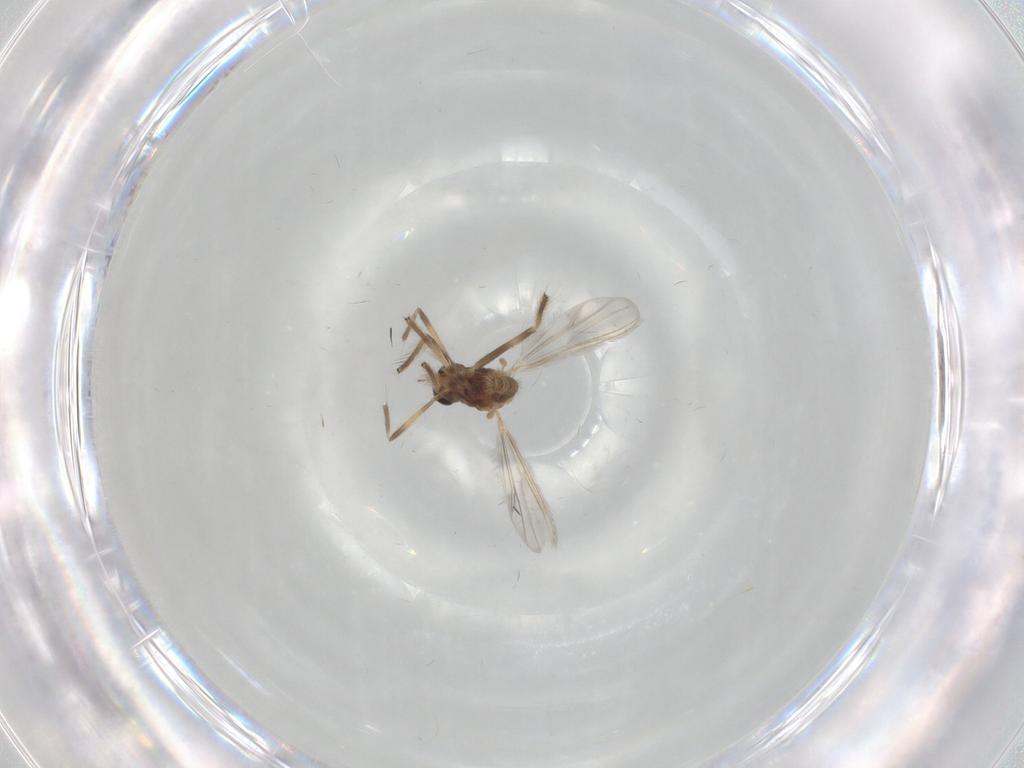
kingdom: Animalia
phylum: Arthropoda
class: Insecta
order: Diptera
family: Chironomidae
